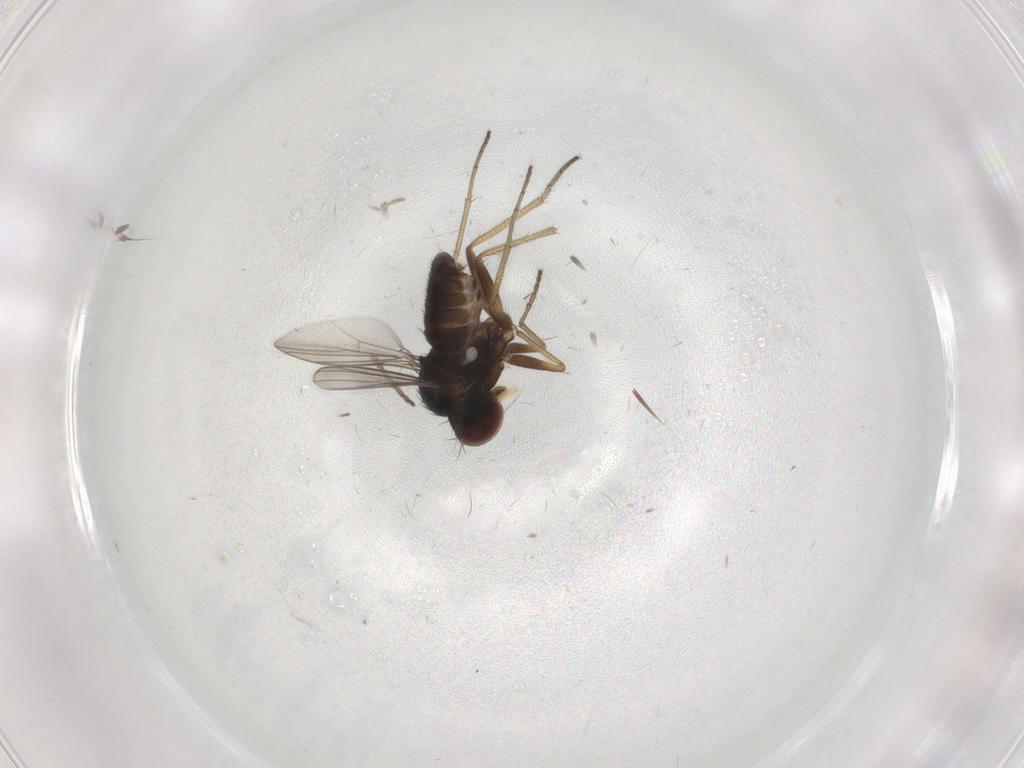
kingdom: Animalia
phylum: Arthropoda
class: Insecta
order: Diptera
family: Dolichopodidae
